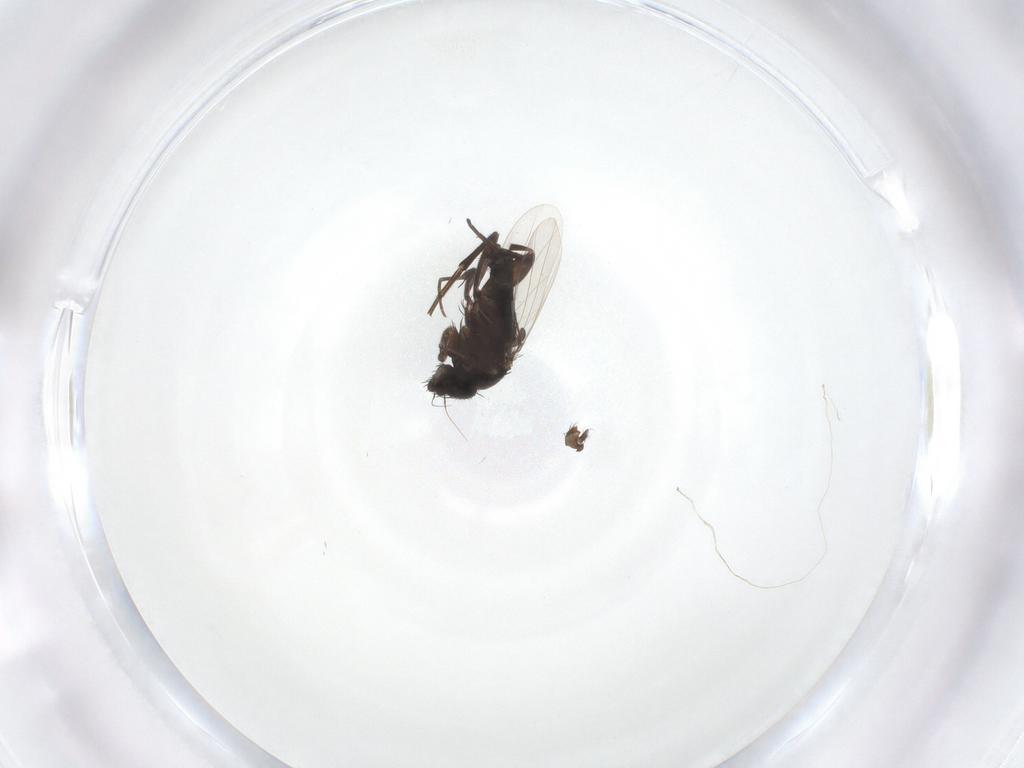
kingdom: Animalia
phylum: Arthropoda
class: Insecta
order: Diptera
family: Phoridae
